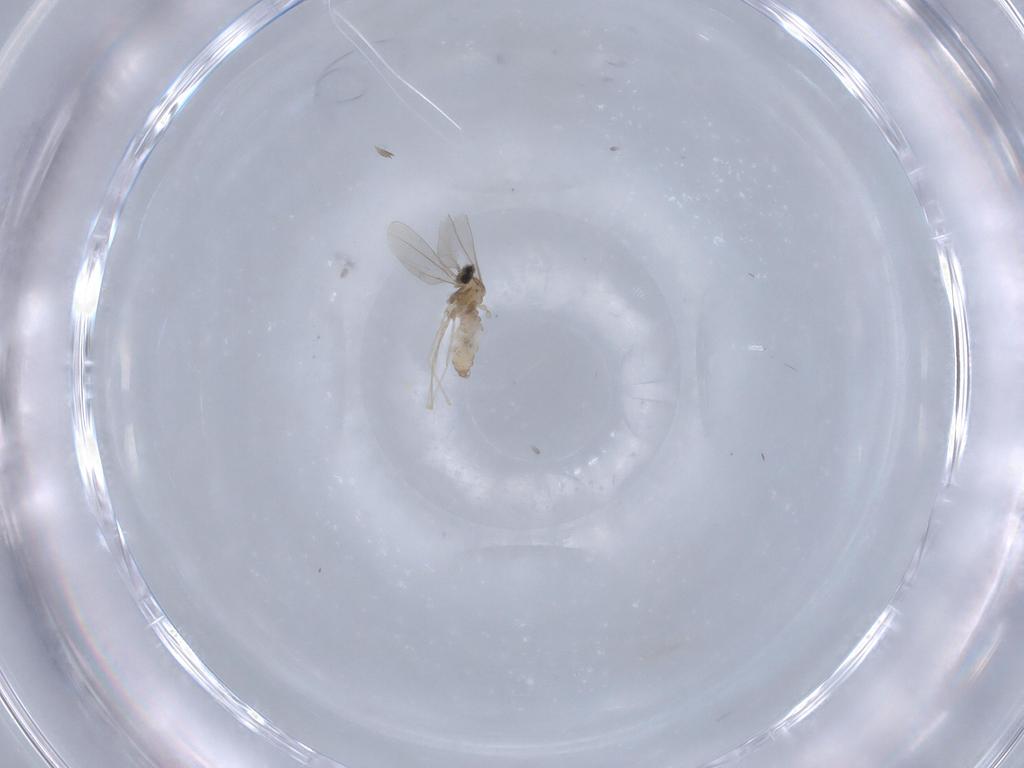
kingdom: Animalia
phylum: Arthropoda
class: Insecta
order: Diptera
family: Cecidomyiidae
